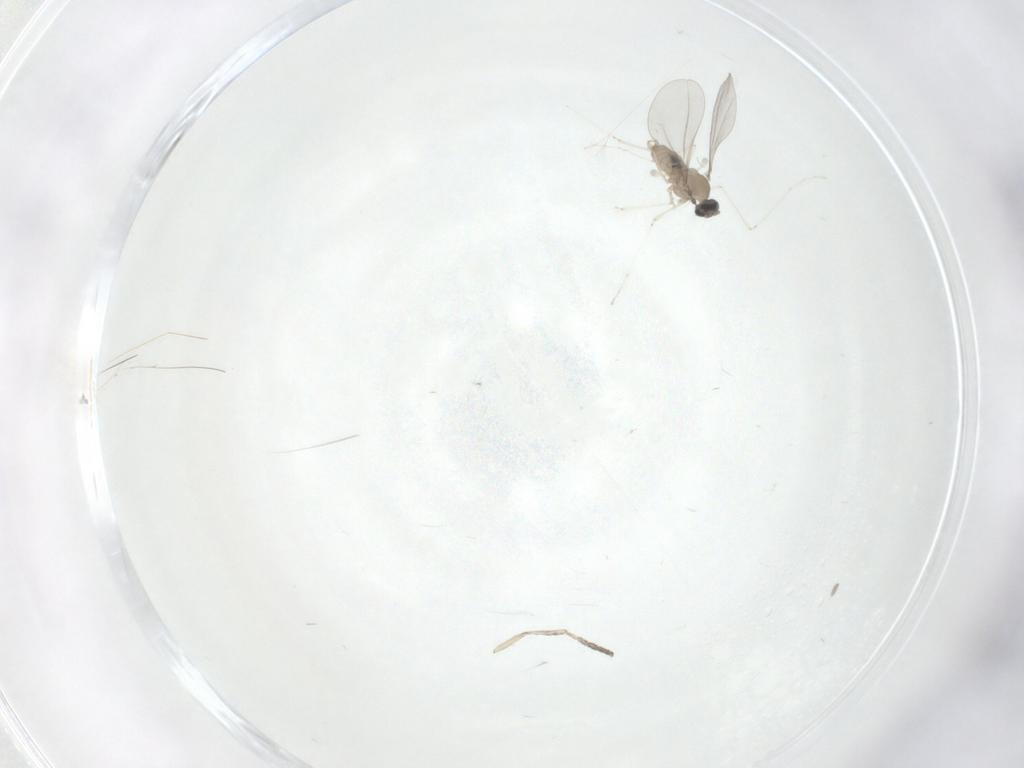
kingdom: Animalia
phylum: Arthropoda
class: Insecta
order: Diptera
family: Cecidomyiidae
